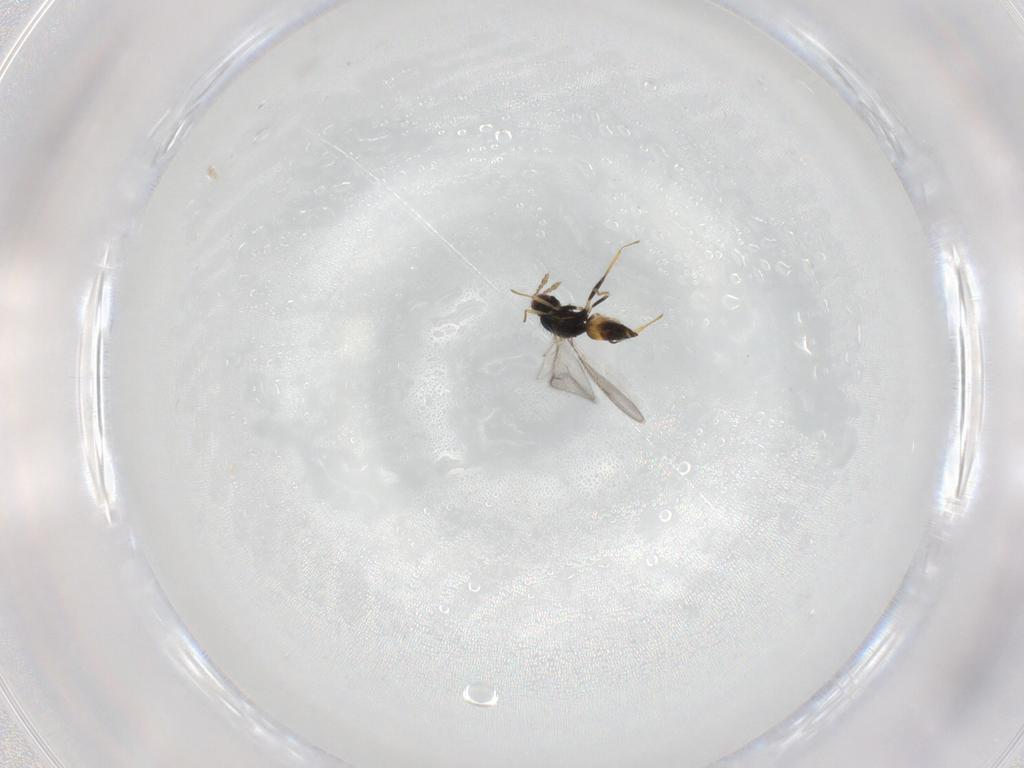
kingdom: Animalia
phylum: Arthropoda
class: Insecta
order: Hymenoptera
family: Eulophidae
